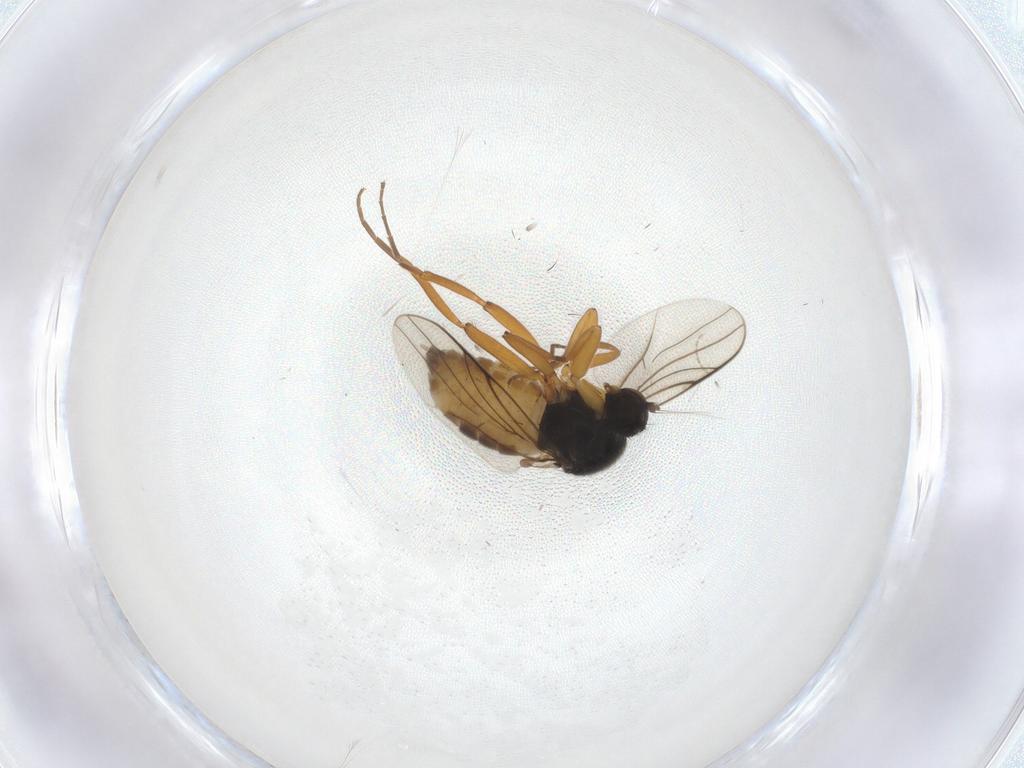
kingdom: Animalia
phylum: Arthropoda
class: Insecta
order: Diptera
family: Hybotidae
